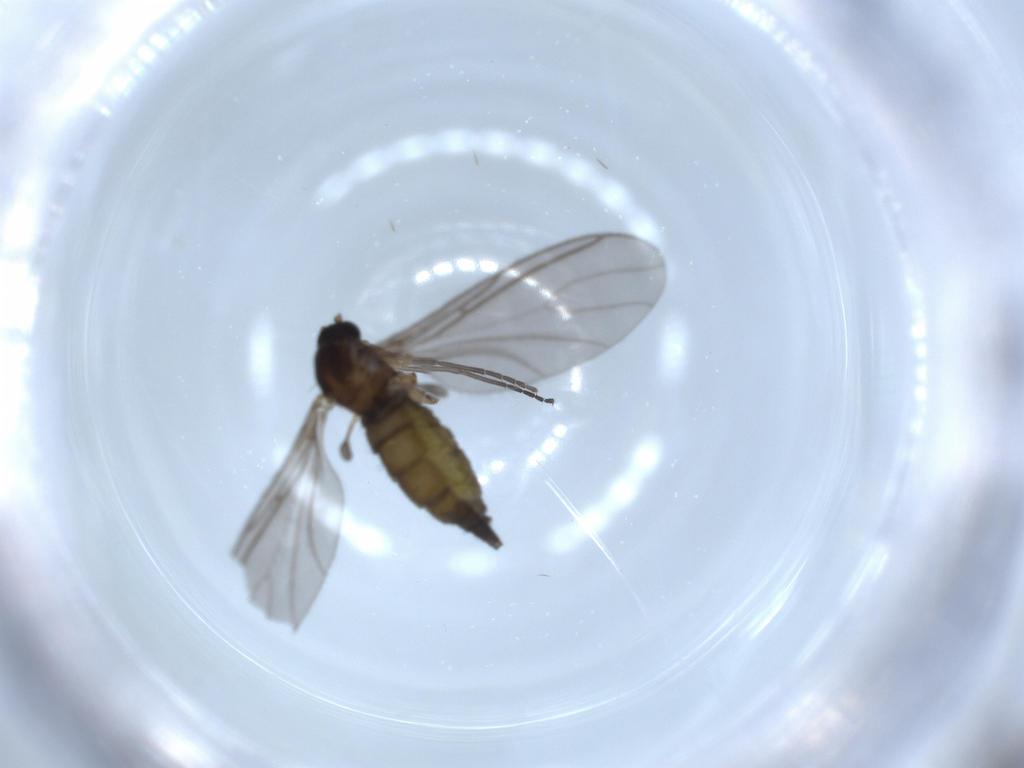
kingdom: Animalia
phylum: Arthropoda
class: Insecta
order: Diptera
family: Sciaridae
